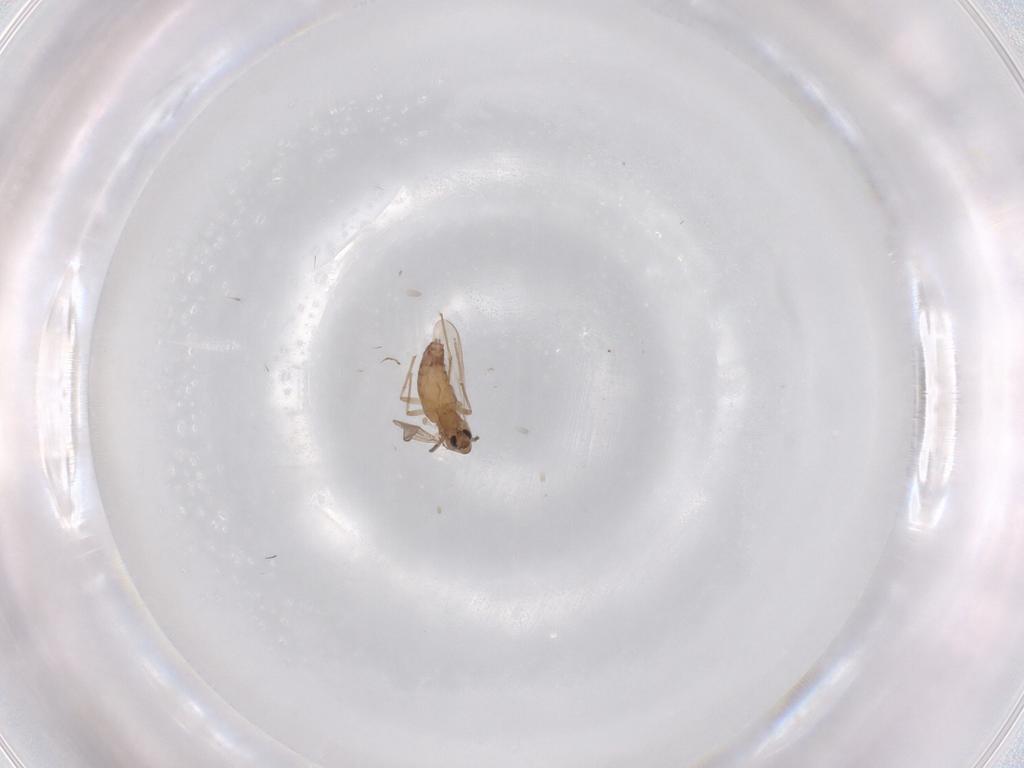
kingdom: Animalia
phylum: Arthropoda
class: Insecta
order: Diptera
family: Chironomidae
